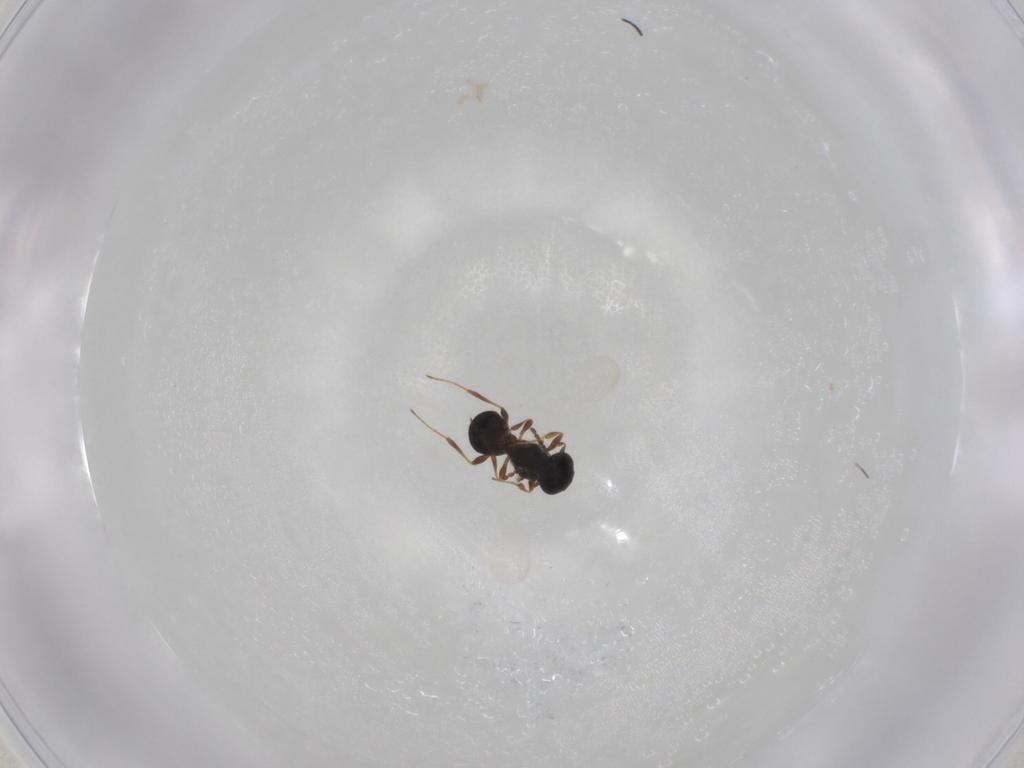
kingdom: Animalia
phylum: Arthropoda
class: Insecta
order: Hymenoptera
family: Platygastridae
